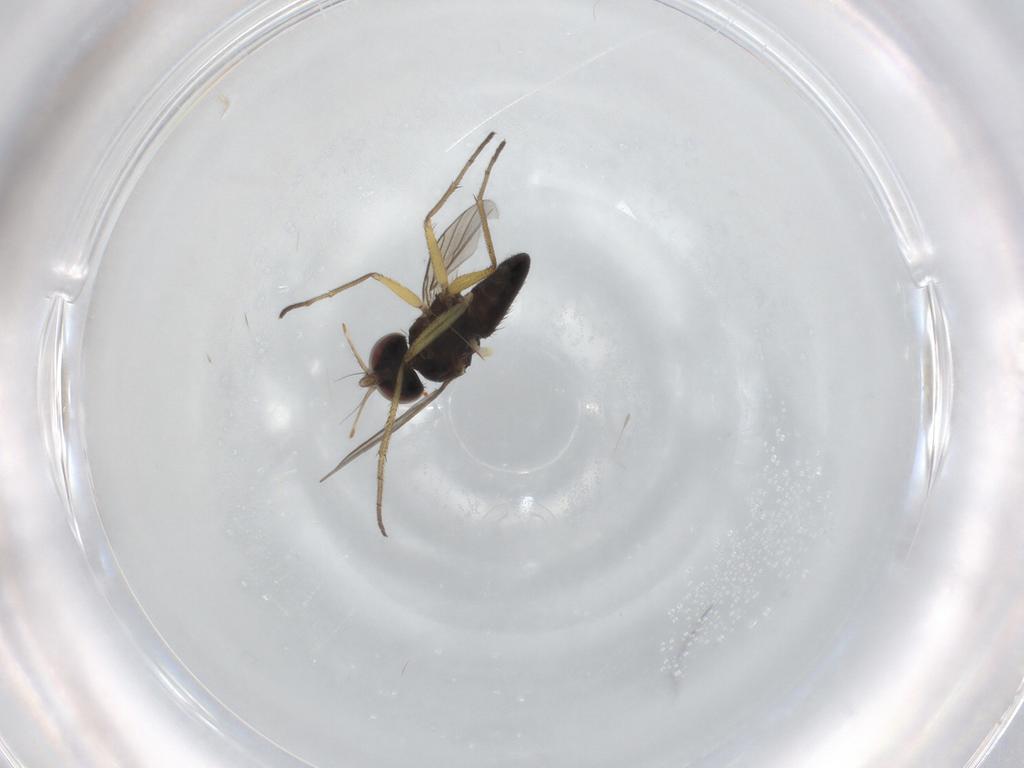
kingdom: Animalia
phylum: Arthropoda
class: Insecta
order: Diptera
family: Dolichopodidae
